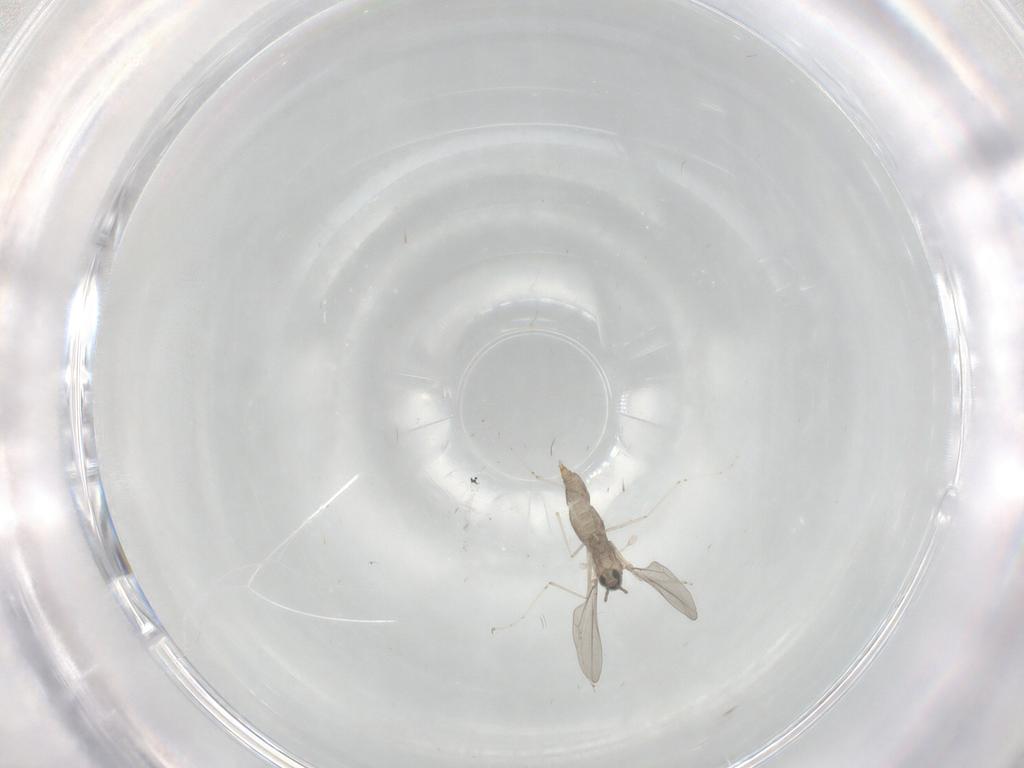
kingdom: Animalia
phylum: Arthropoda
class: Insecta
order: Diptera
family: Cecidomyiidae
